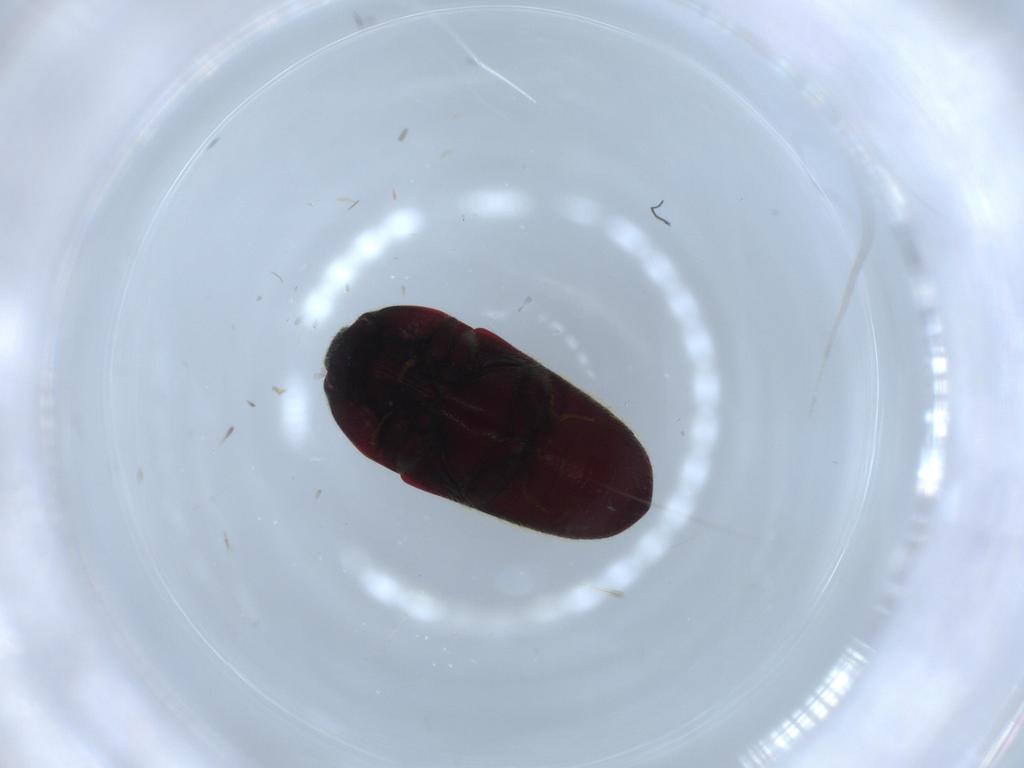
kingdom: Animalia
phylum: Arthropoda
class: Insecta
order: Coleoptera
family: Throscidae
